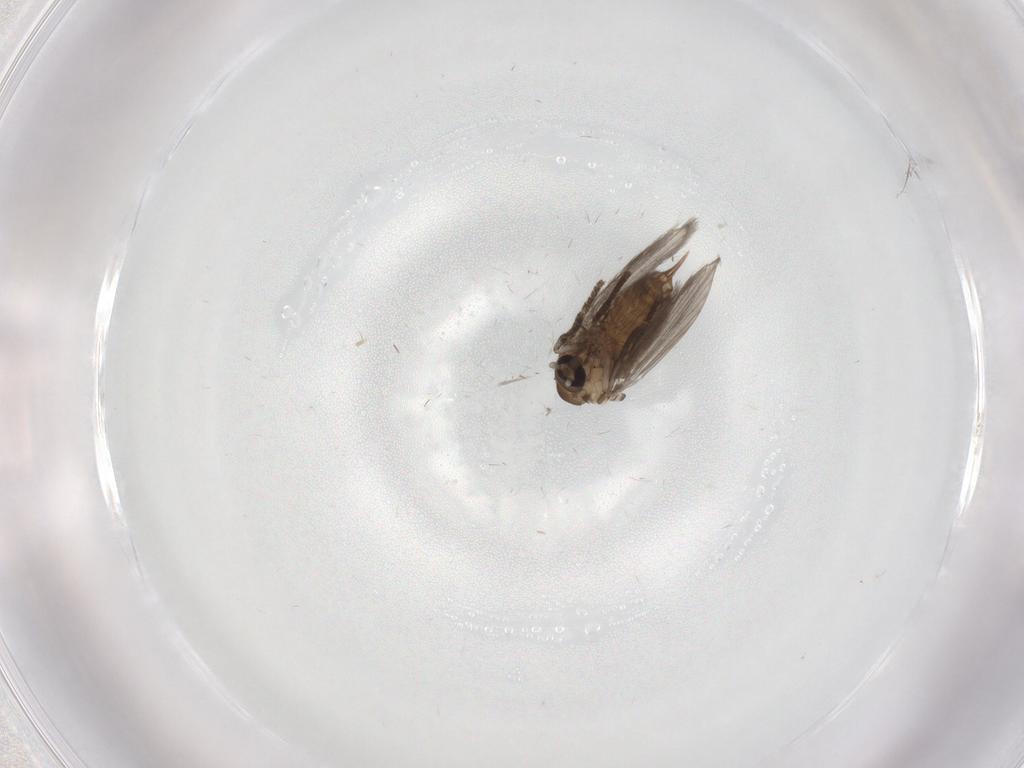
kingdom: Animalia
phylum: Arthropoda
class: Insecta
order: Diptera
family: Psychodidae
